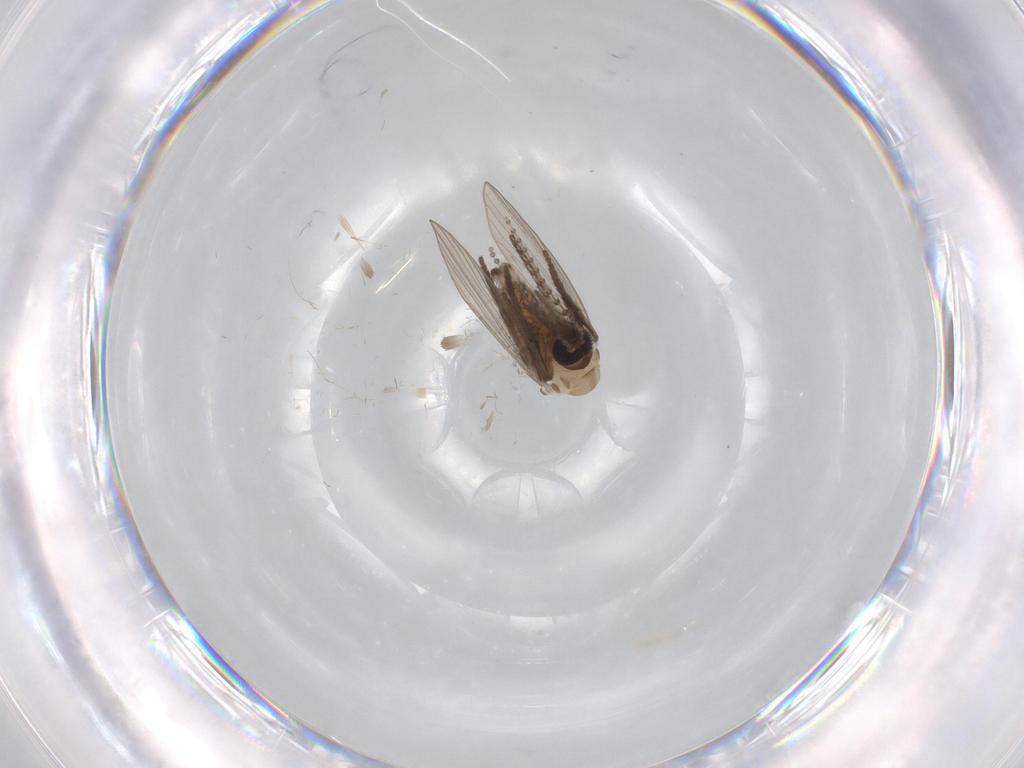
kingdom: Animalia
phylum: Arthropoda
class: Insecta
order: Diptera
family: Psychodidae
